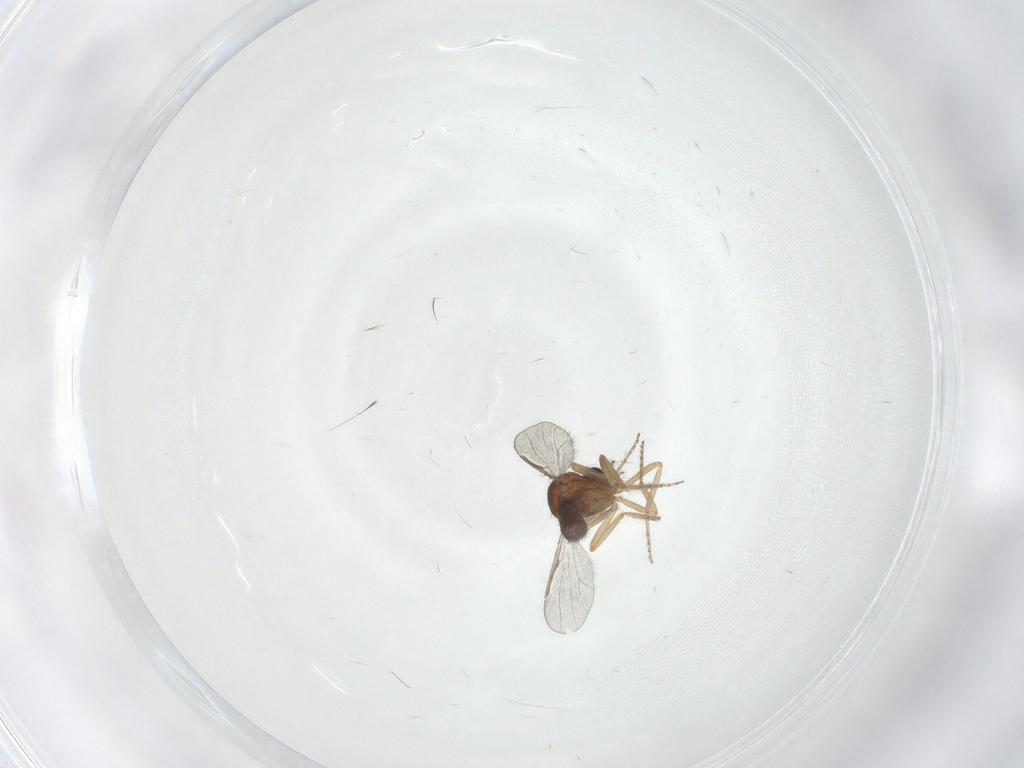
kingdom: Animalia
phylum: Arthropoda
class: Insecta
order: Diptera
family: Ceratopogonidae
